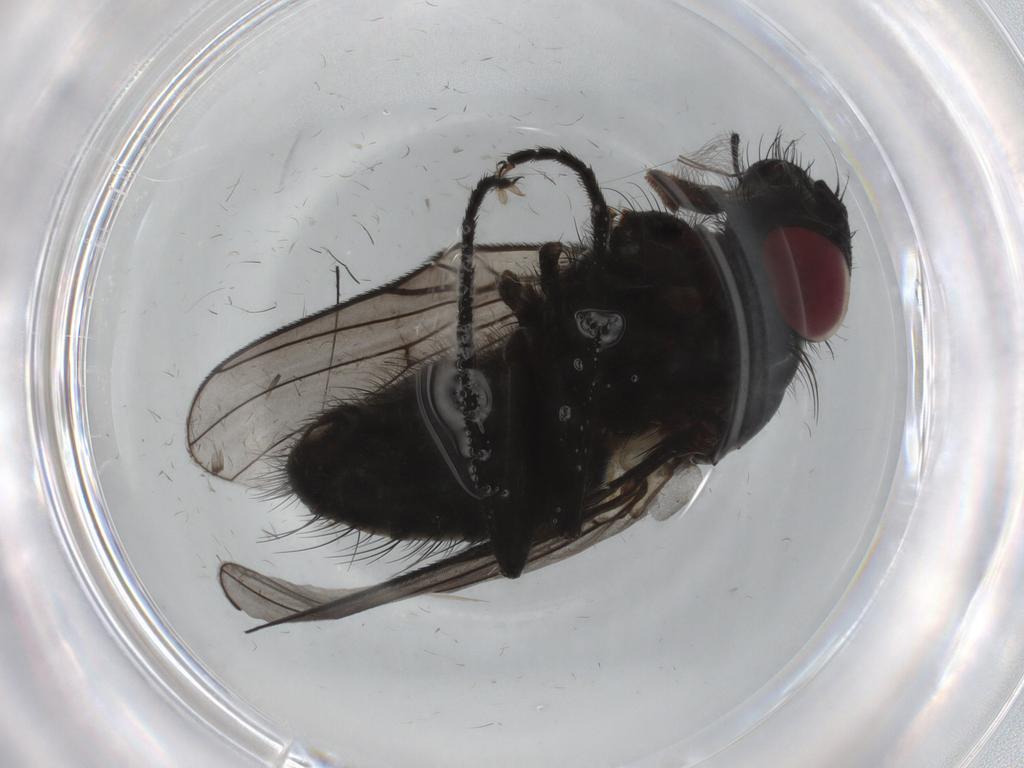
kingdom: Animalia
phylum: Arthropoda
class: Insecta
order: Diptera
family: Muscidae
